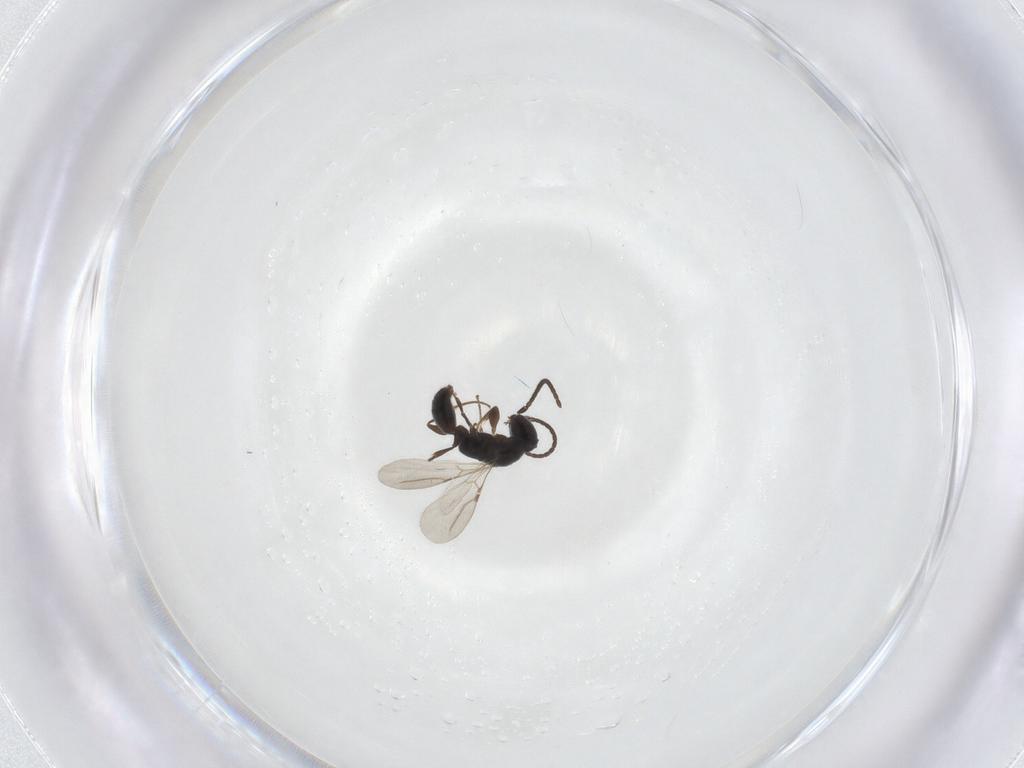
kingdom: Animalia
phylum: Arthropoda
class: Insecta
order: Hymenoptera
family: Bethylidae
